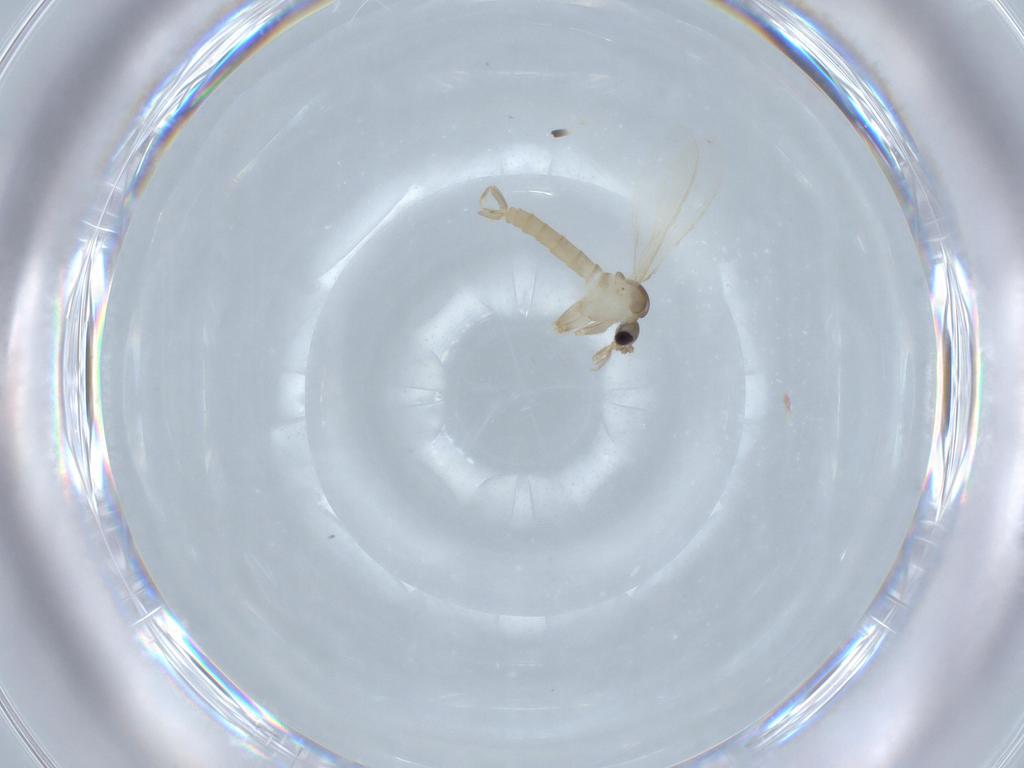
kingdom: Animalia
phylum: Arthropoda
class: Insecta
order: Diptera
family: Cecidomyiidae
